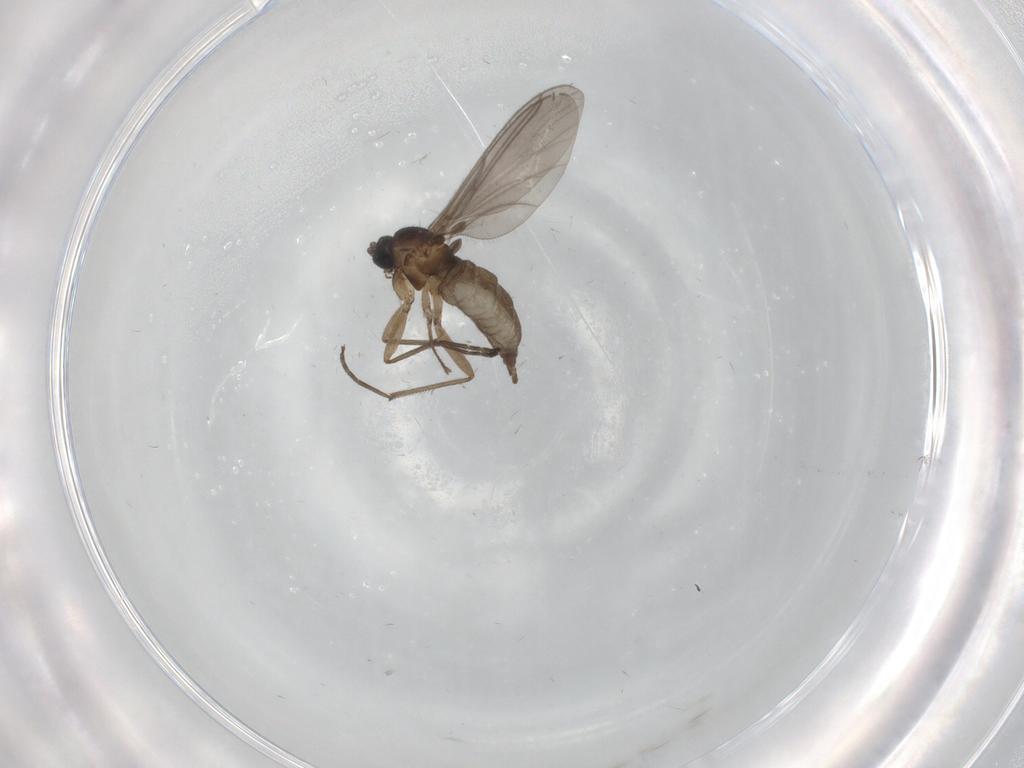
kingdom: Animalia
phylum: Arthropoda
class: Insecta
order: Diptera
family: Sciaridae
